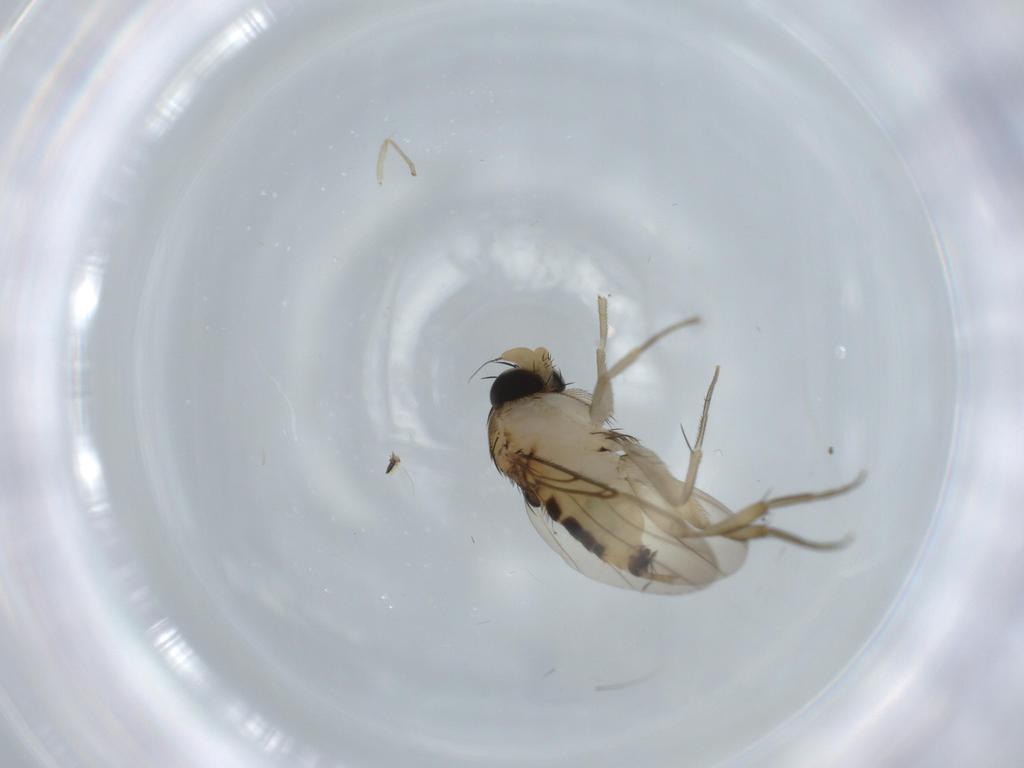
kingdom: Animalia
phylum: Arthropoda
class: Insecta
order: Diptera
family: Phoridae
